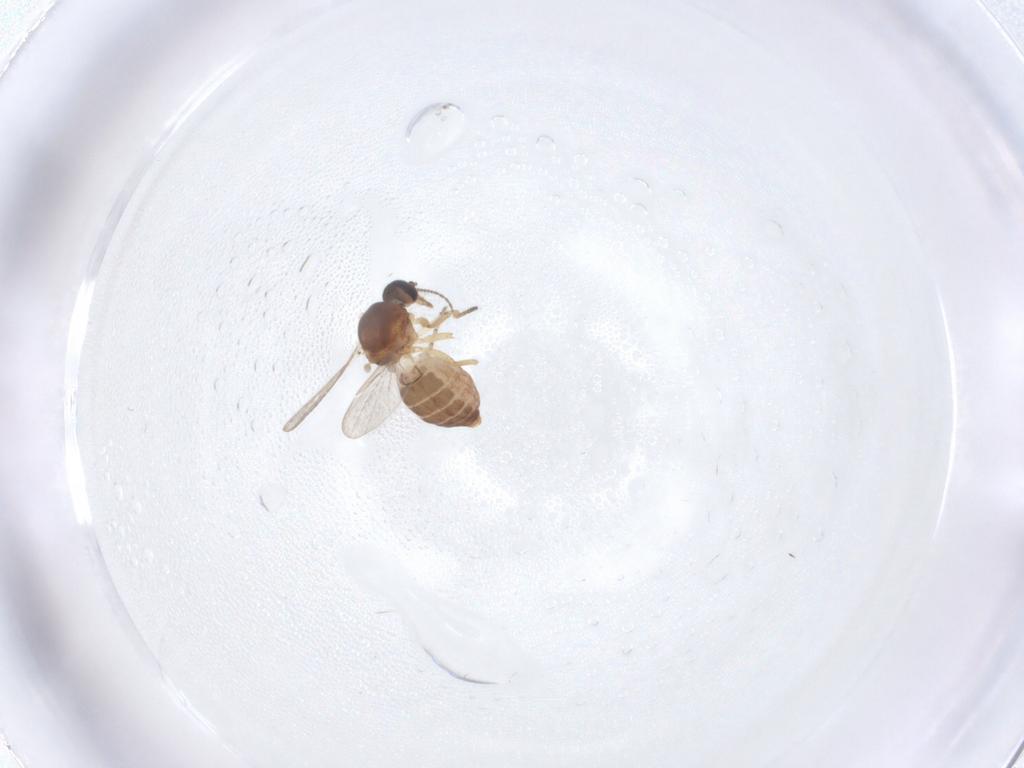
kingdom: Animalia
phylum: Arthropoda
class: Insecta
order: Diptera
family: Ceratopogonidae
